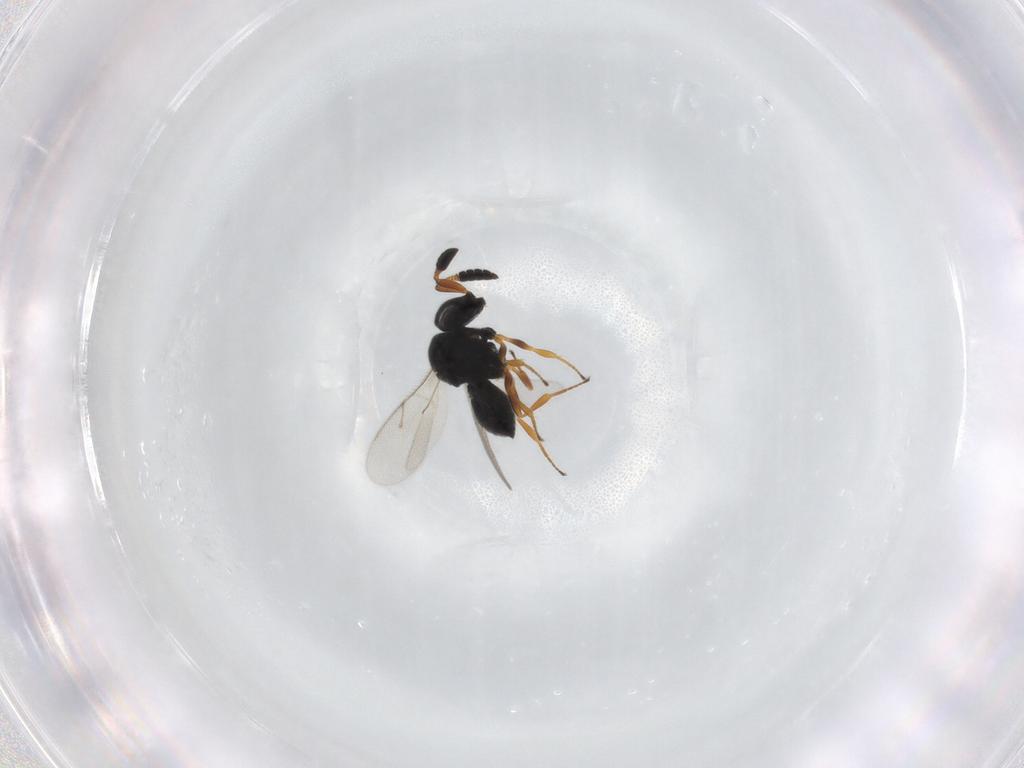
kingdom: Animalia
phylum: Arthropoda
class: Insecta
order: Hymenoptera
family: Scelionidae
